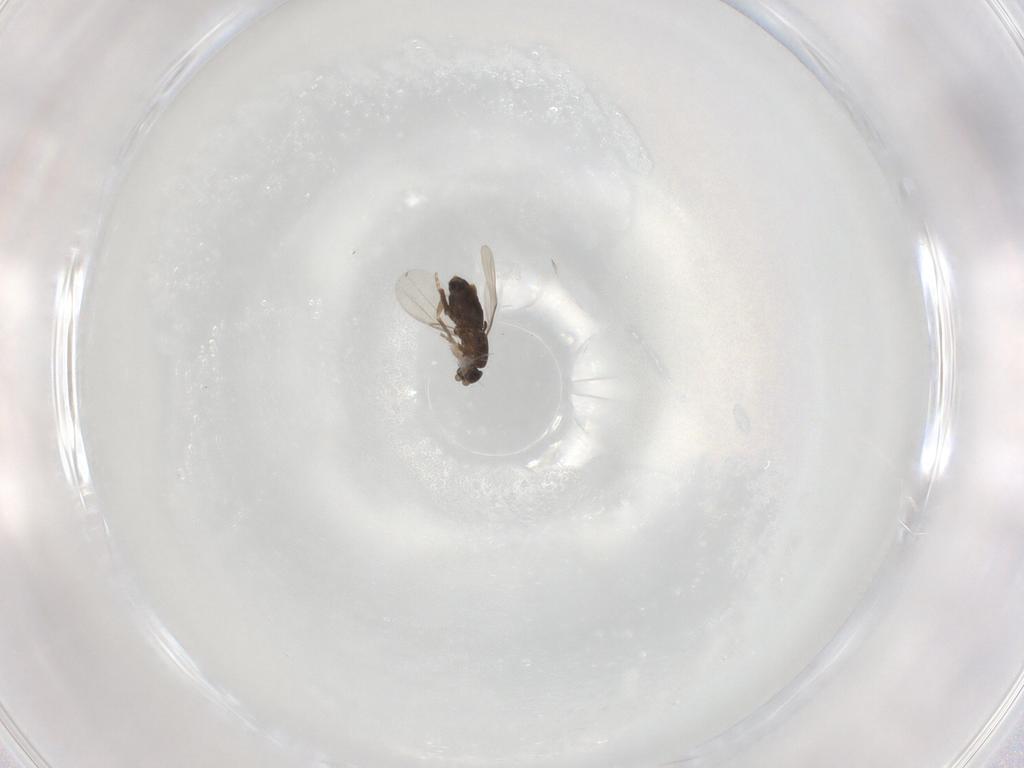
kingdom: Animalia
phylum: Arthropoda
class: Insecta
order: Diptera
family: Phoridae
